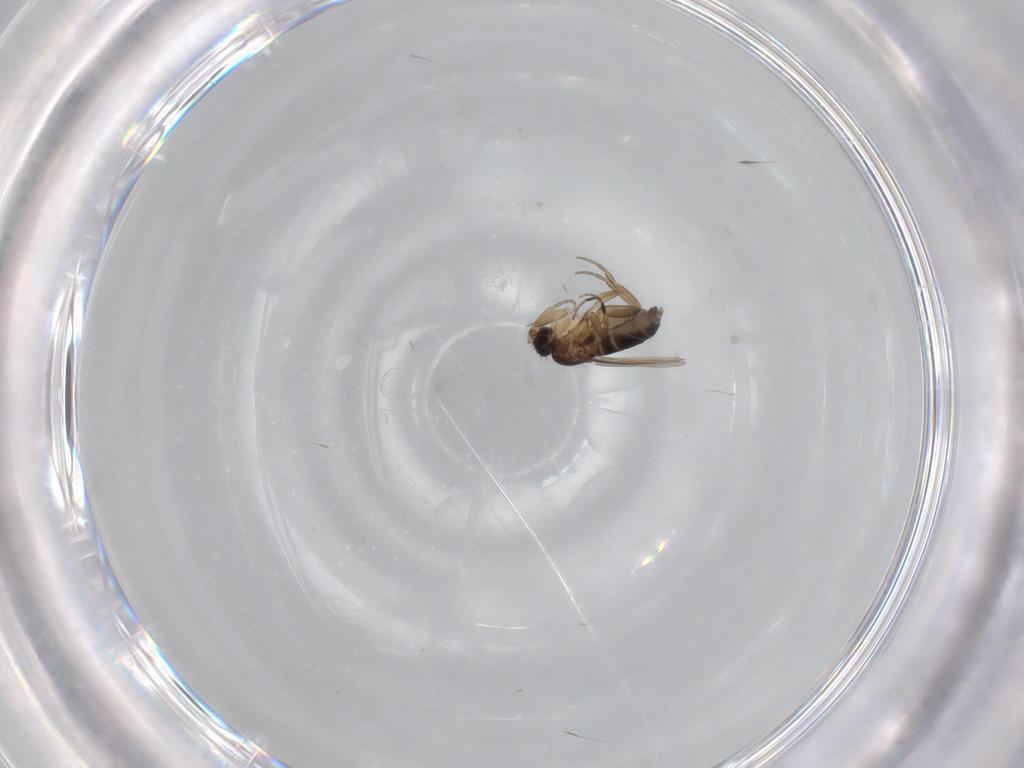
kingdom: Animalia
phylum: Arthropoda
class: Insecta
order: Diptera
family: Phoridae
